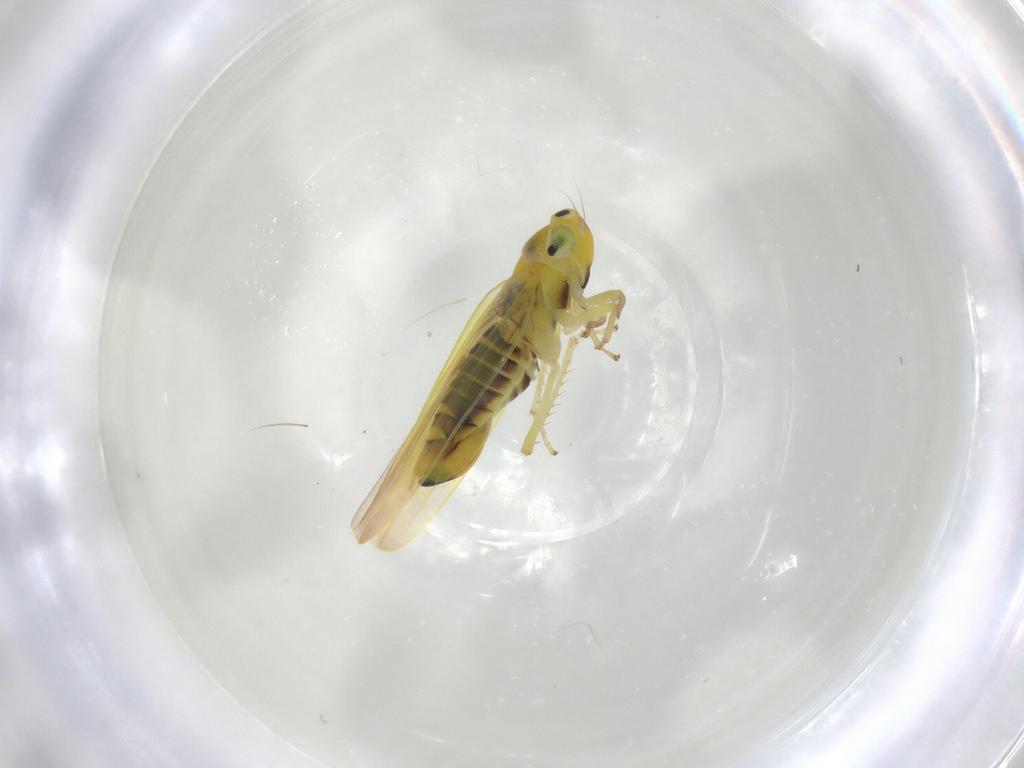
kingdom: Animalia
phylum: Arthropoda
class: Insecta
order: Hemiptera
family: Cicadellidae
